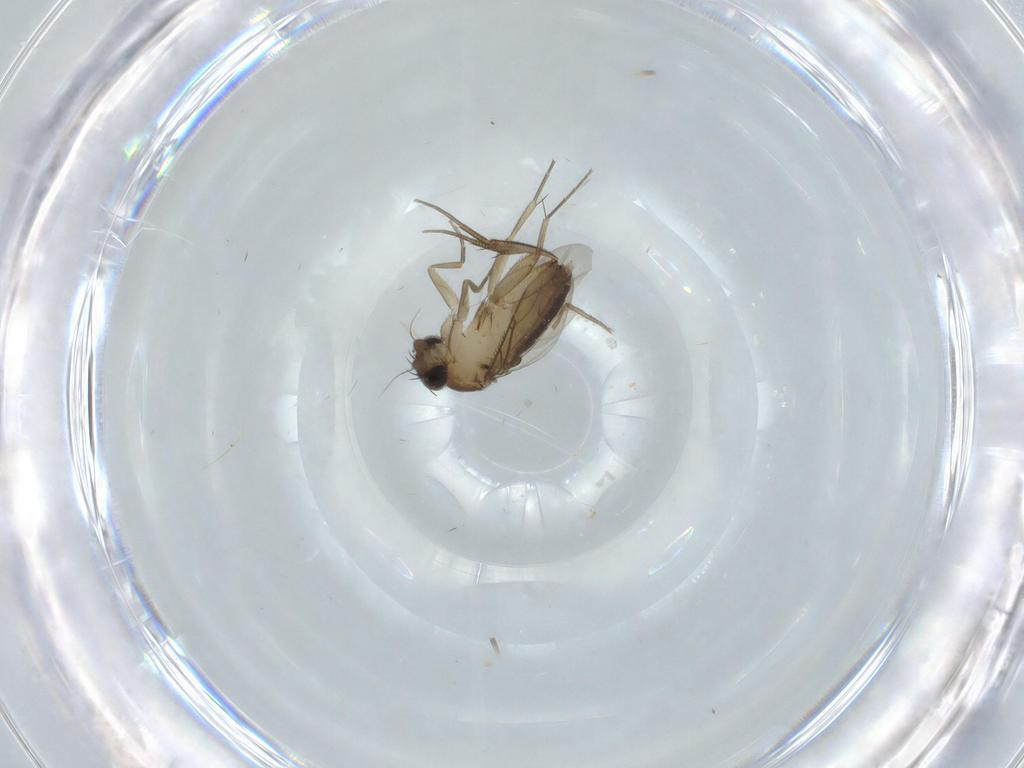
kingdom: Animalia
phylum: Arthropoda
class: Insecta
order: Diptera
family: Phoridae
